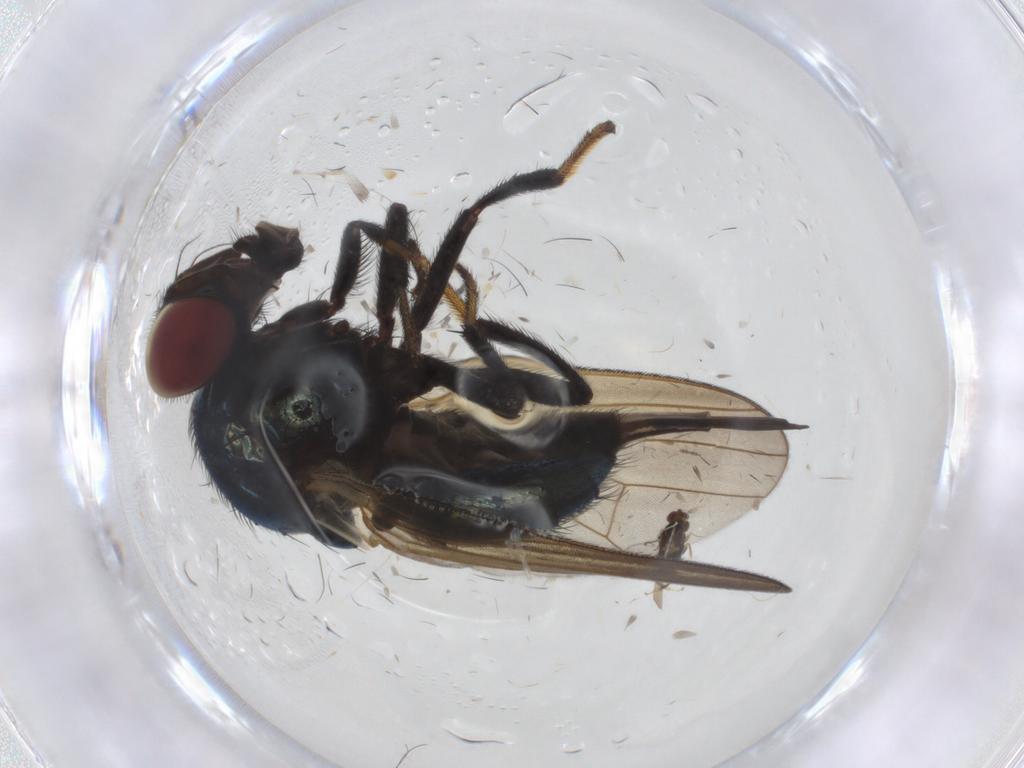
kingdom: Animalia
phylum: Arthropoda
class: Insecta
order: Diptera
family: Lonchaeidae
